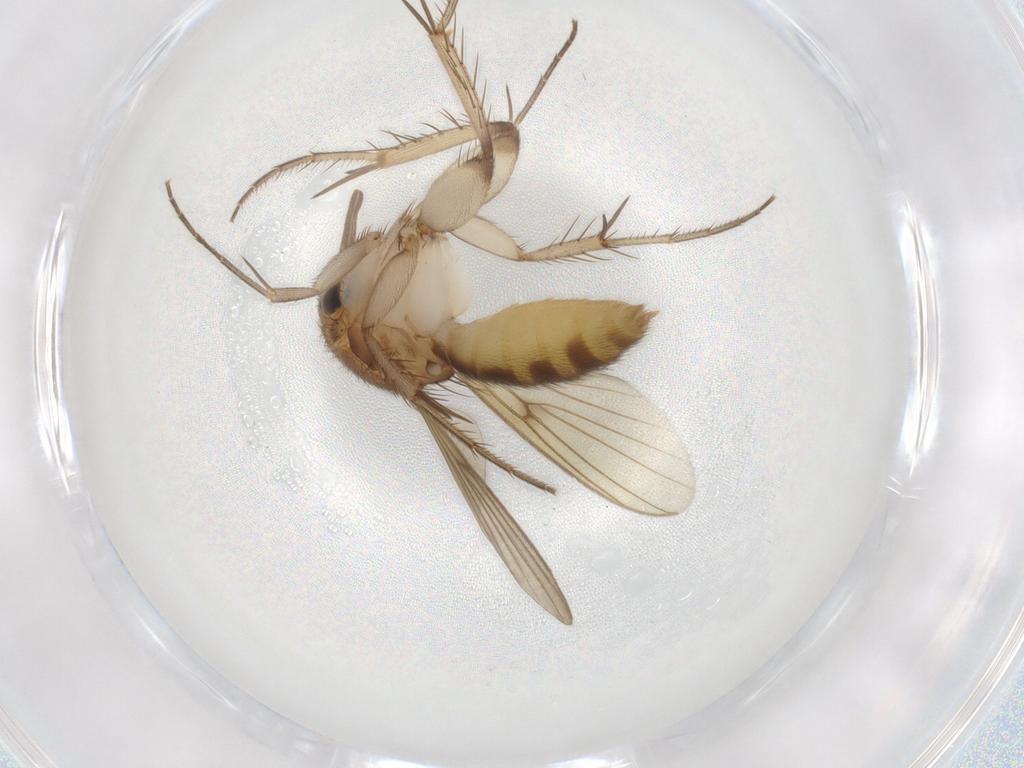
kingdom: Animalia
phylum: Arthropoda
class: Insecta
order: Diptera
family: Mycetophilidae
